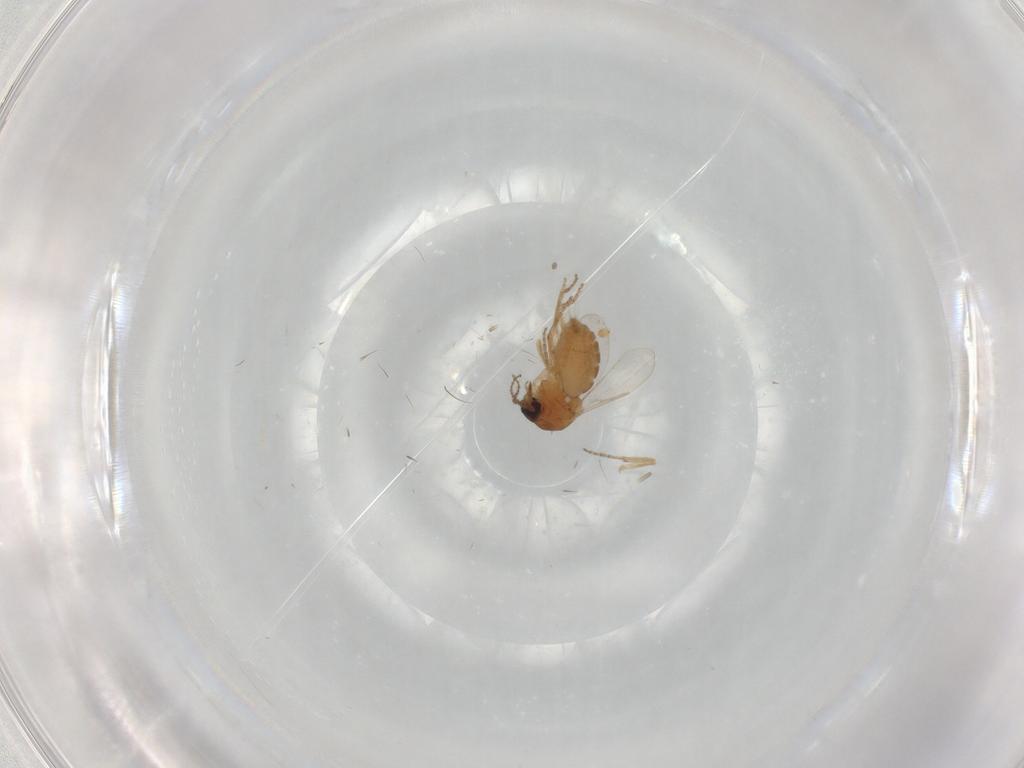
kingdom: Animalia
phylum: Arthropoda
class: Insecta
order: Diptera
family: Ceratopogonidae
